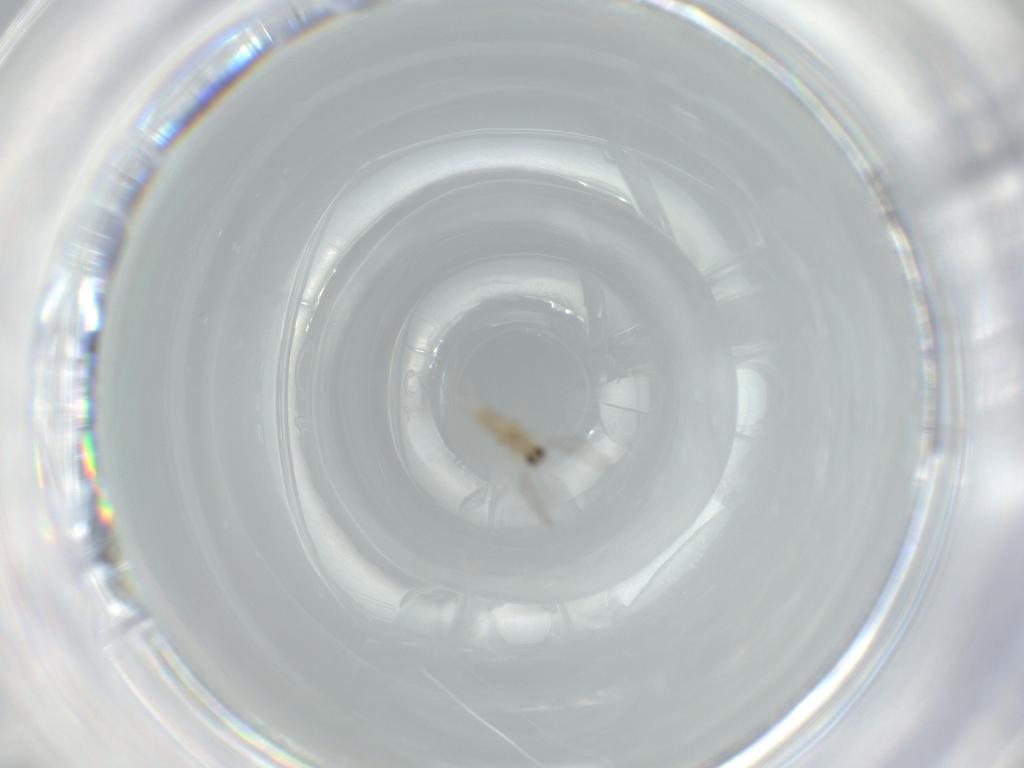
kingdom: Animalia
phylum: Arthropoda
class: Insecta
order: Diptera
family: Cecidomyiidae
